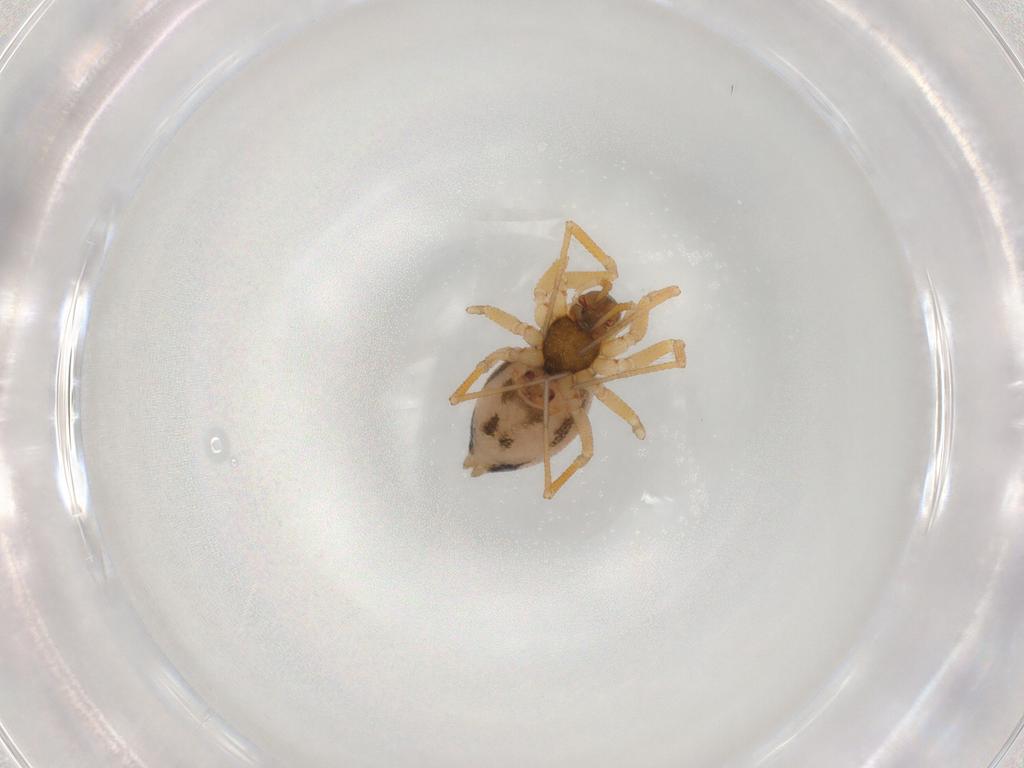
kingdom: Animalia
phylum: Arthropoda
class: Arachnida
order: Araneae
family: Linyphiidae
